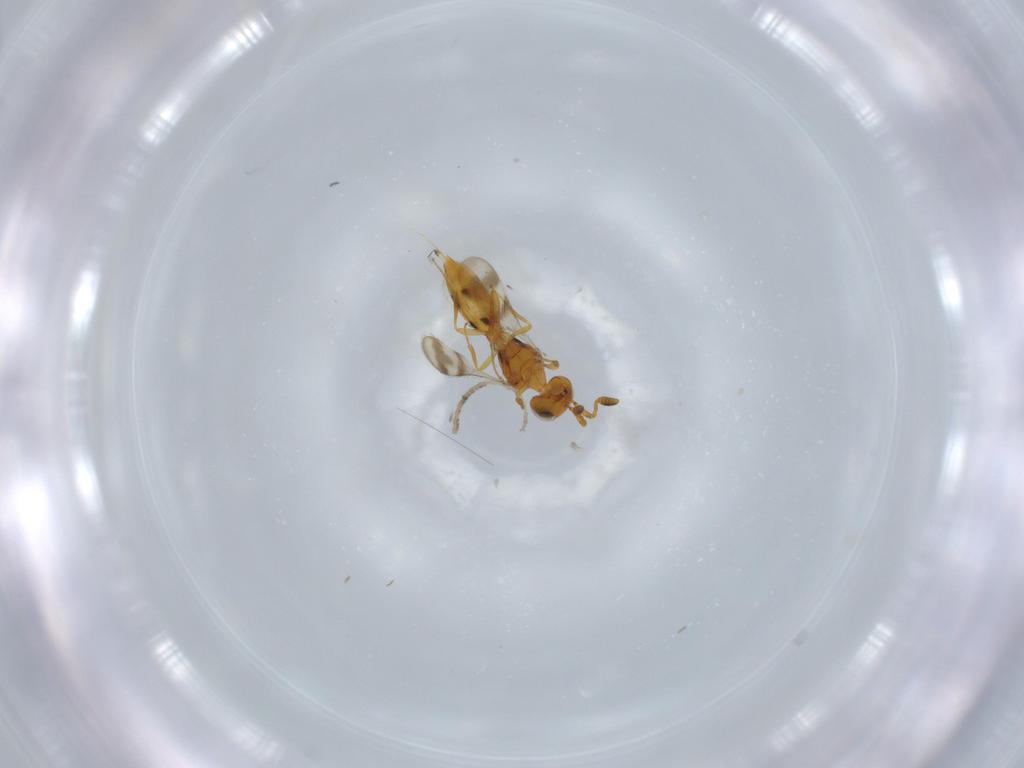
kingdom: Animalia
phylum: Arthropoda
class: Insecta
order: Hymenoptera
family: Scelionidae
